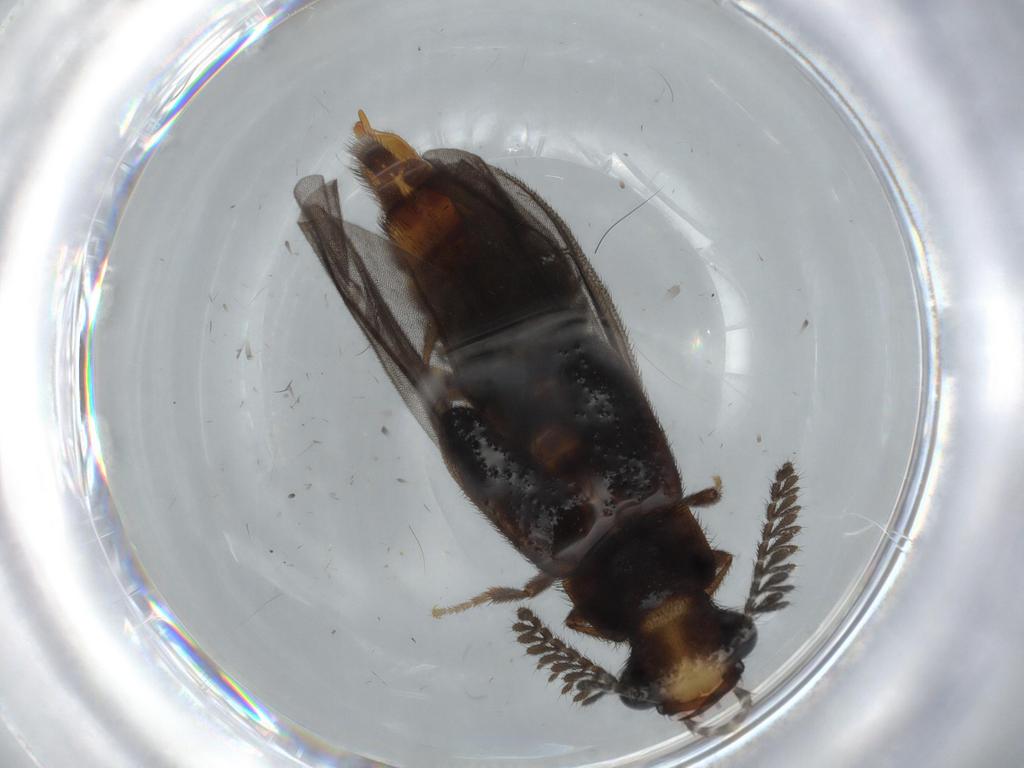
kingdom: Animalia
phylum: Arthropoda
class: Insecta
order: Coleoptera
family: Phengodidae
